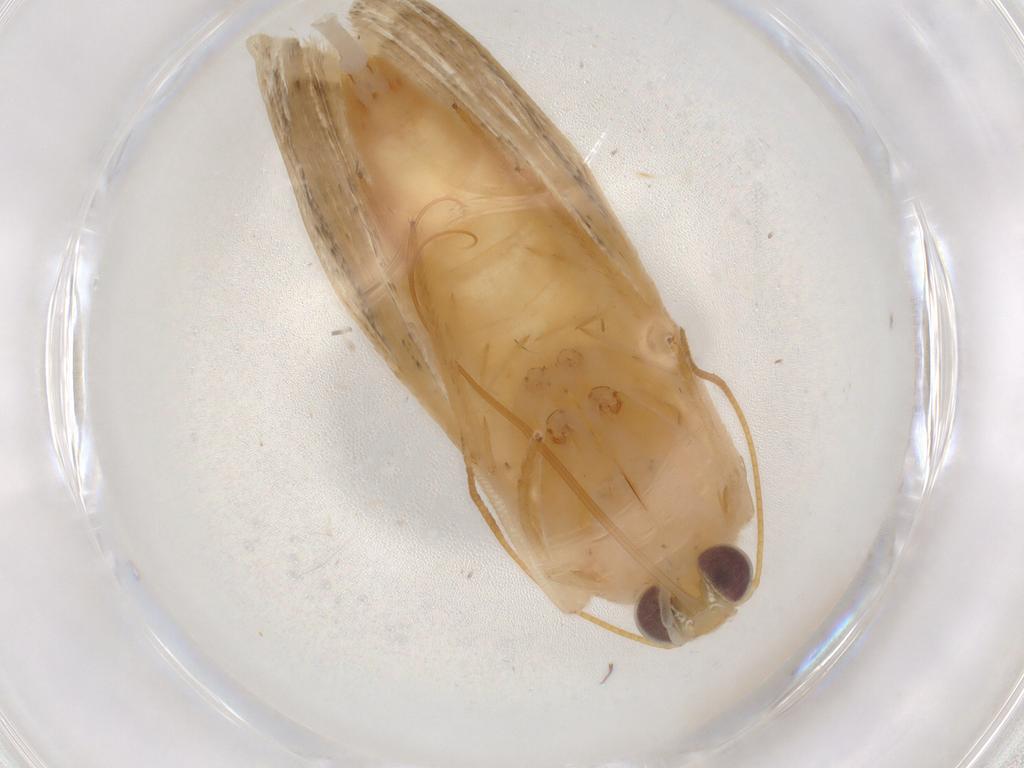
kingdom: Animalia
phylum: Arthropoda
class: Insecta
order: Lepidoptera
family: Noctuidae
